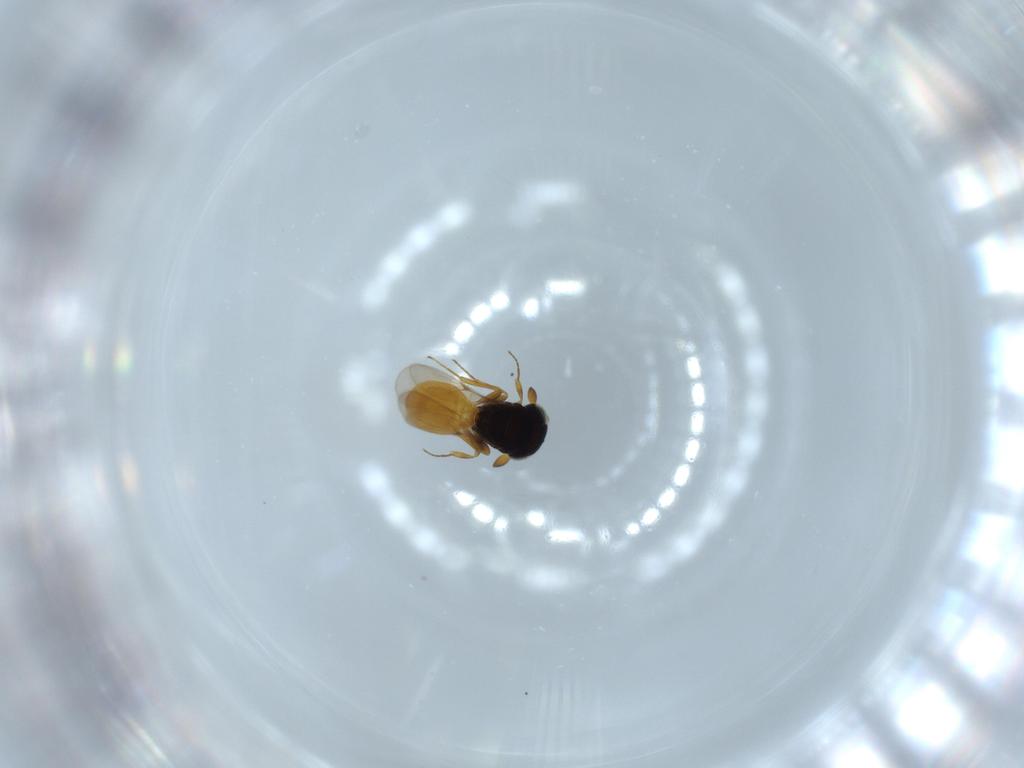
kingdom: Animalia
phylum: Arthropoda
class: Insecta
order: Hymenoptera
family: Scelionidae
